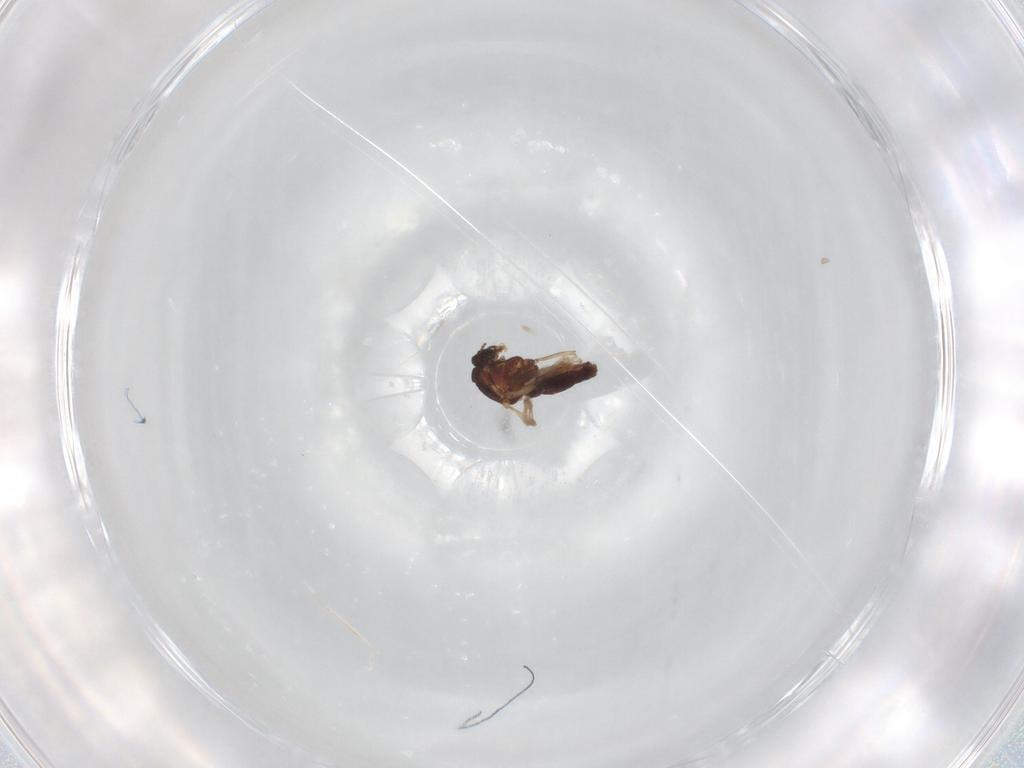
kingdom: Animalia
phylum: Arthropoda
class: Insecta
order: Diptera
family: Ceratopogonidae
